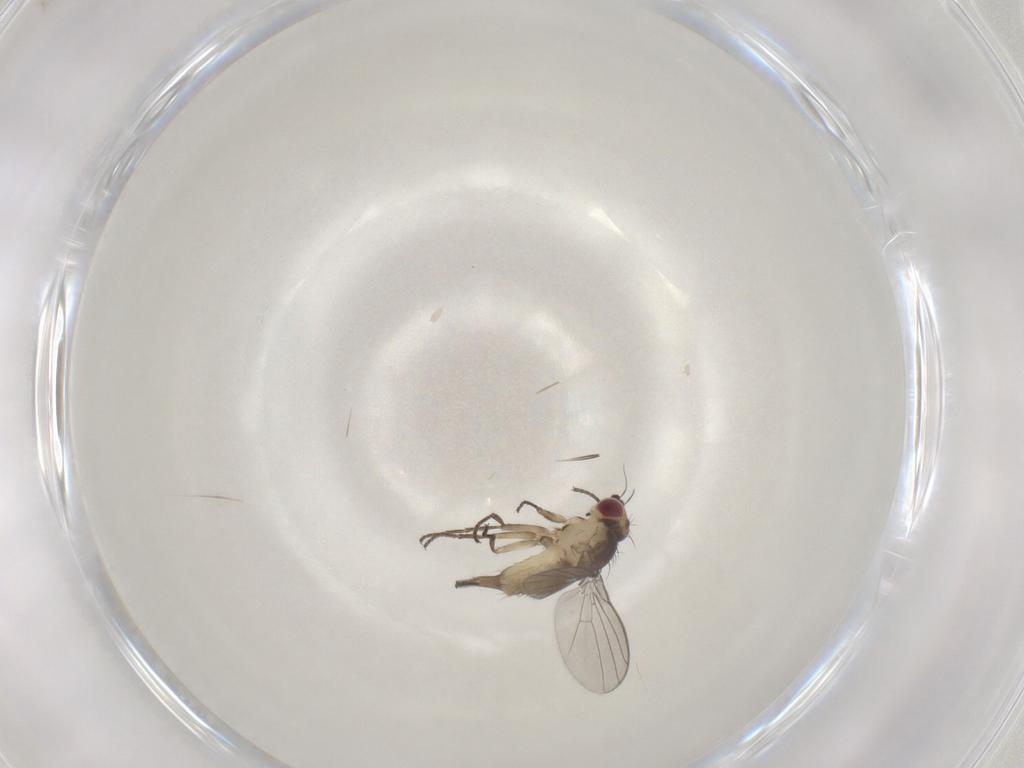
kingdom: Animalia
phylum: Arthropoda
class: Insecta
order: Diptera
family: Agromyzidae
